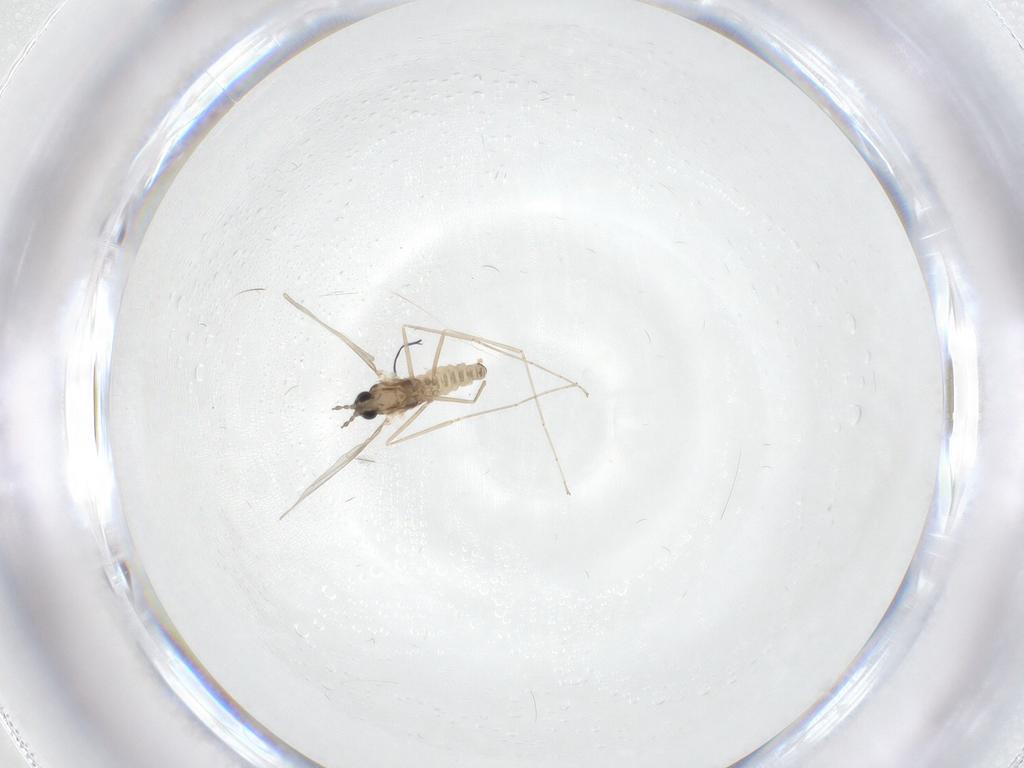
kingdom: Animalia
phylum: Arthropoda
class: Insecta
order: Diptera
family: Cecidomyiidae
